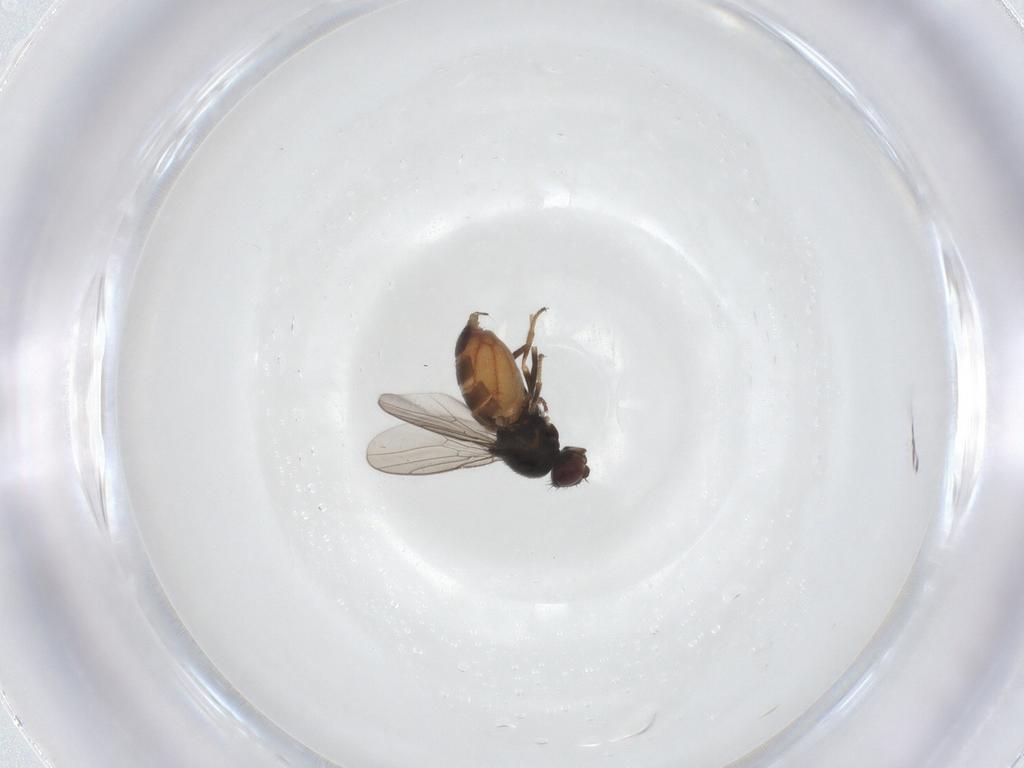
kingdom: Animalia
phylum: Arthropoda
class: Insecta
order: Diptera
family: Chloropidae
